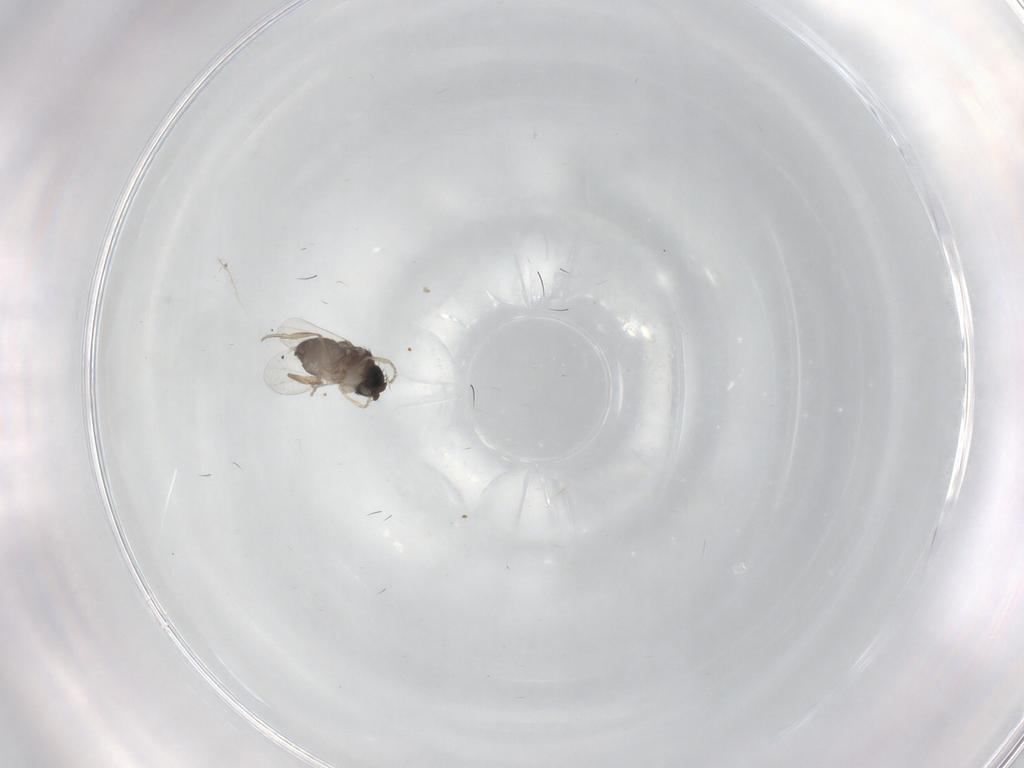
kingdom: Animalia
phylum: Arthropoda
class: Insecta
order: Diptera
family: Phoridae
